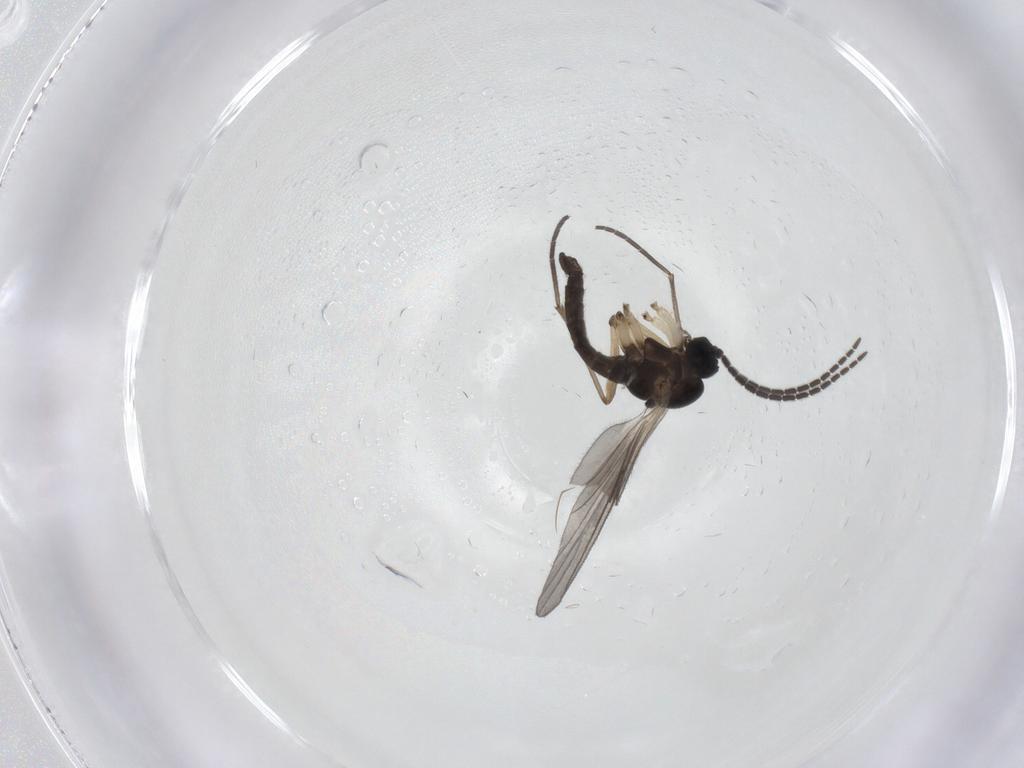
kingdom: Animalia
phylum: Arthropoda
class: Insecta
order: Diptera
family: Sciaridae
